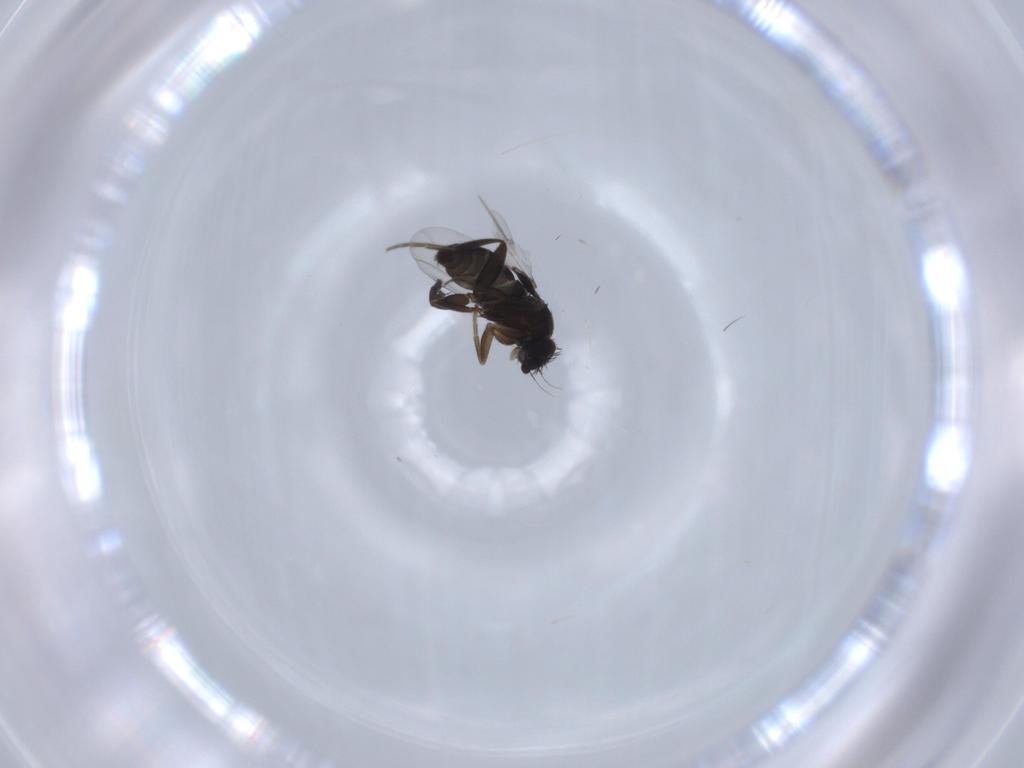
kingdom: Animalia
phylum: Arthropoda
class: Insecta
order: Diptera
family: Phoridae
